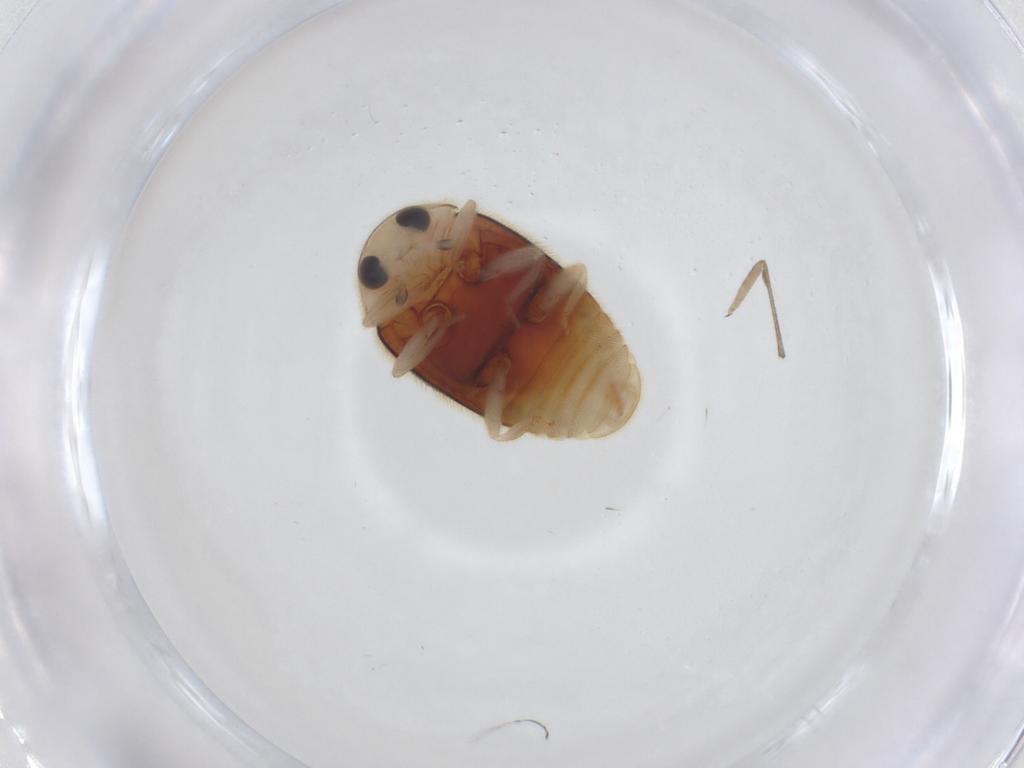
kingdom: Animalia
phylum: Arthropoda
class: Insecta
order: Coleoptera
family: Coccinellidae
